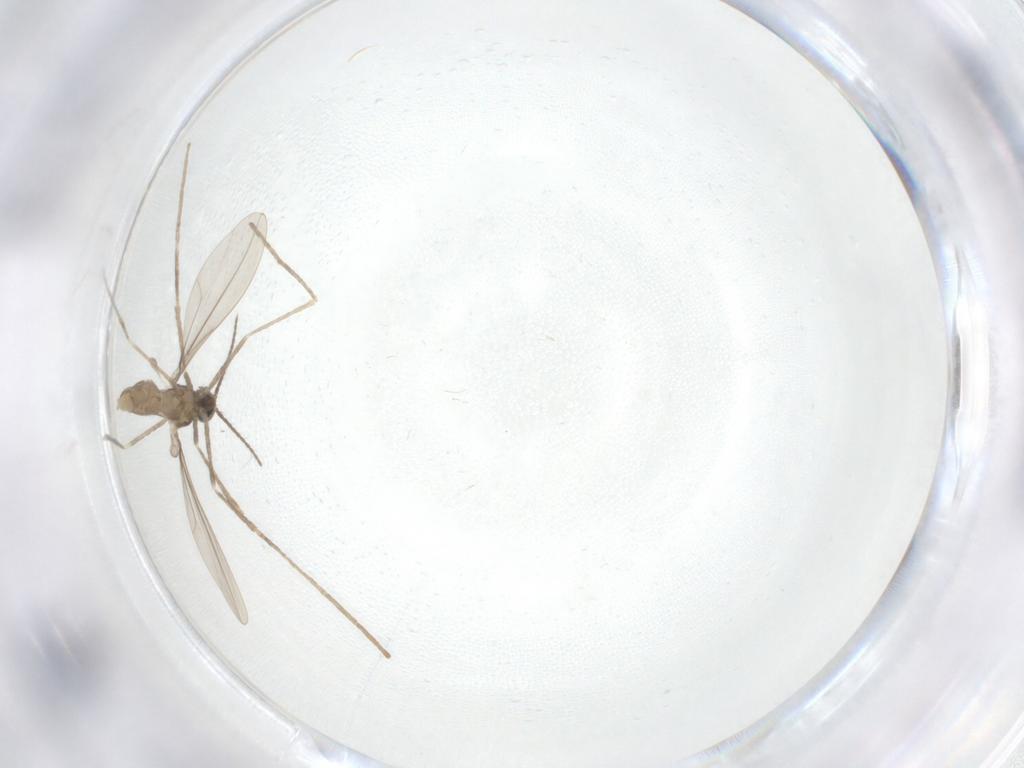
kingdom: Animalia
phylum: Arthropoda
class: Insecta
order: Diptera
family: Cecidomyiidae
